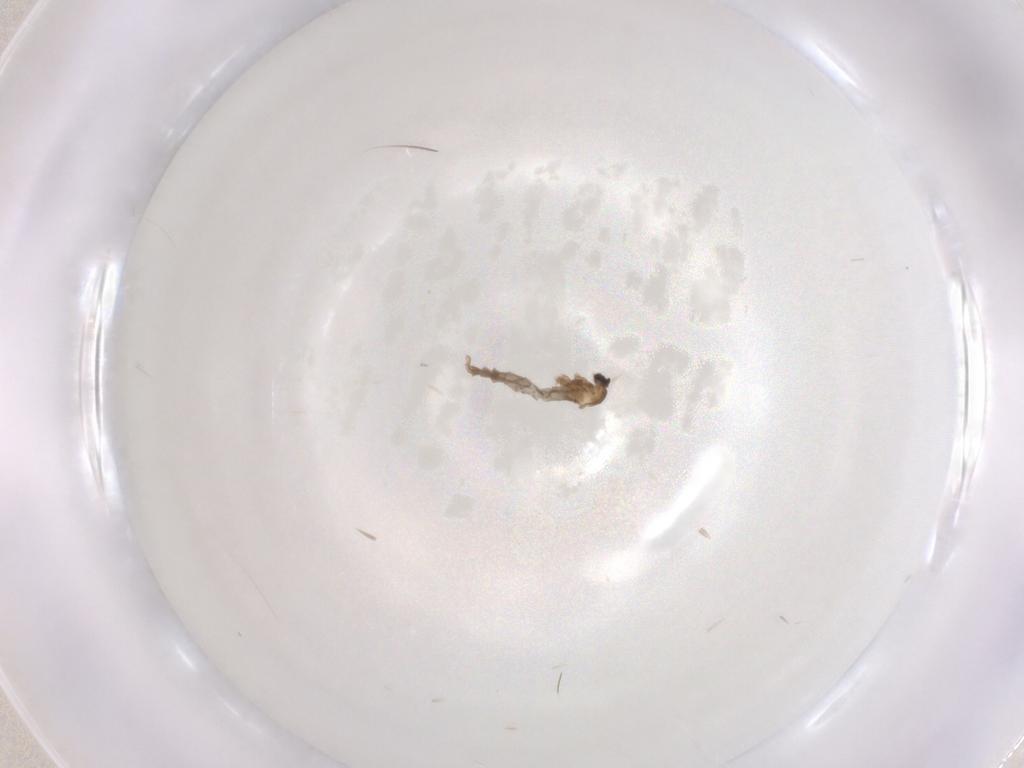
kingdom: Animalia
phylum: Arthropoda
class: Insecta
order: Diptera
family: Cecidomyiidae
